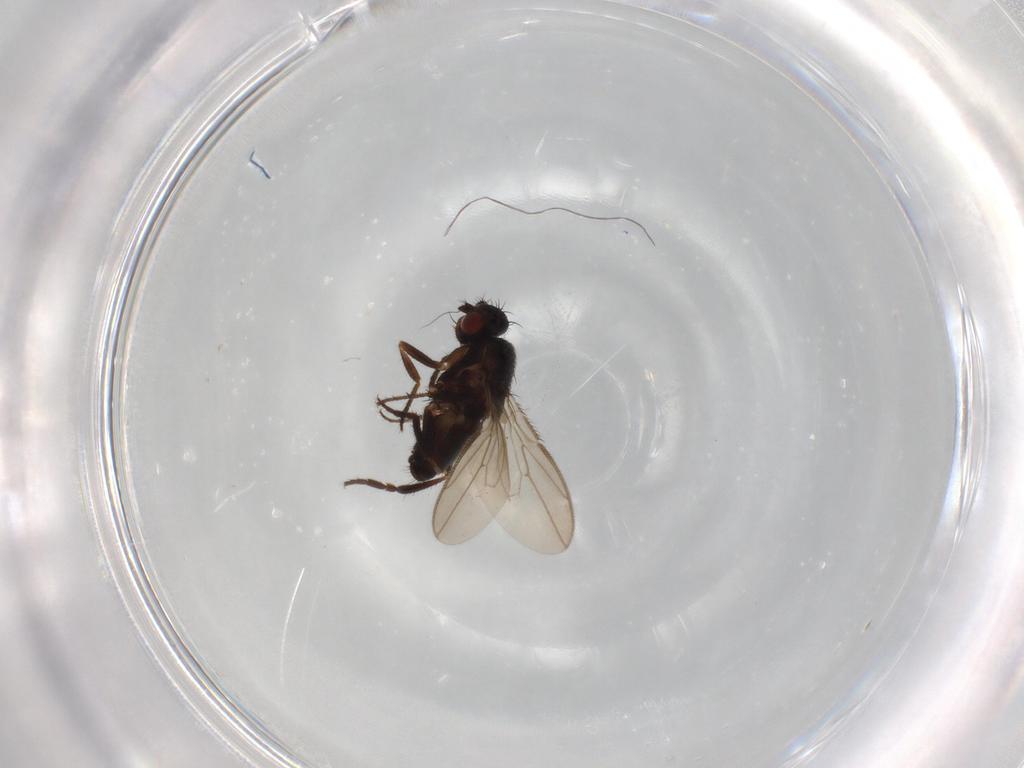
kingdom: Animalia
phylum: Arthropoda
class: Insecta
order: Diptera
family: Sphaeroceridae
